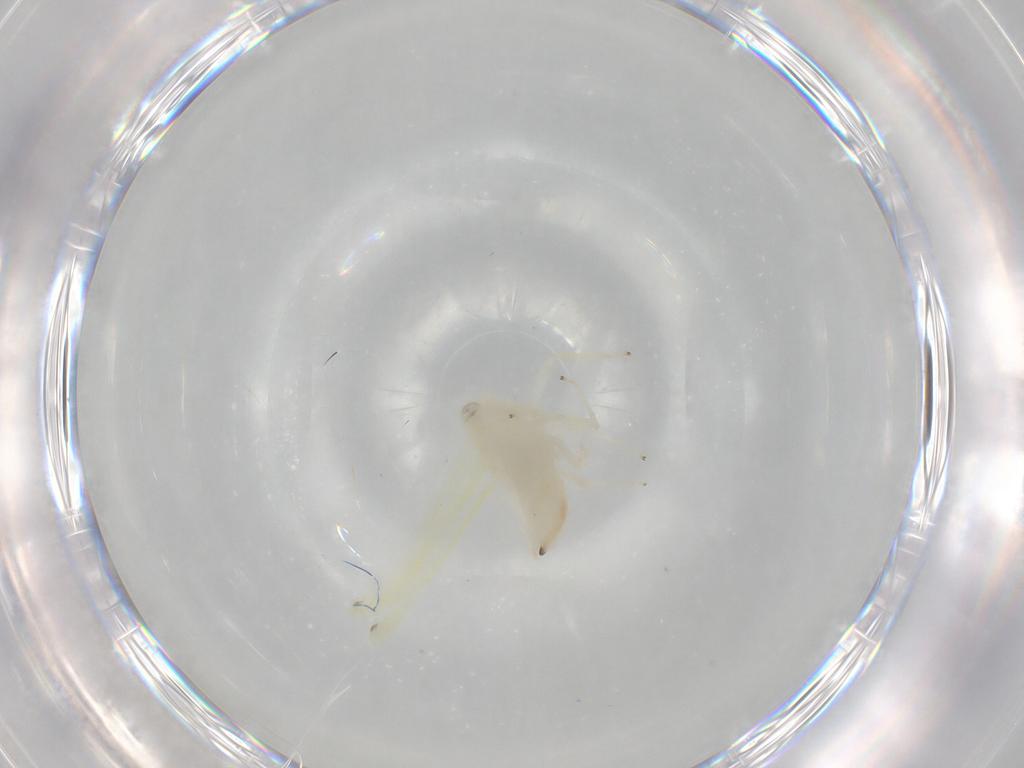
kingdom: Animalia
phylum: Arthropoda
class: Insecta
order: Hemiptera
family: Cicadellidae
